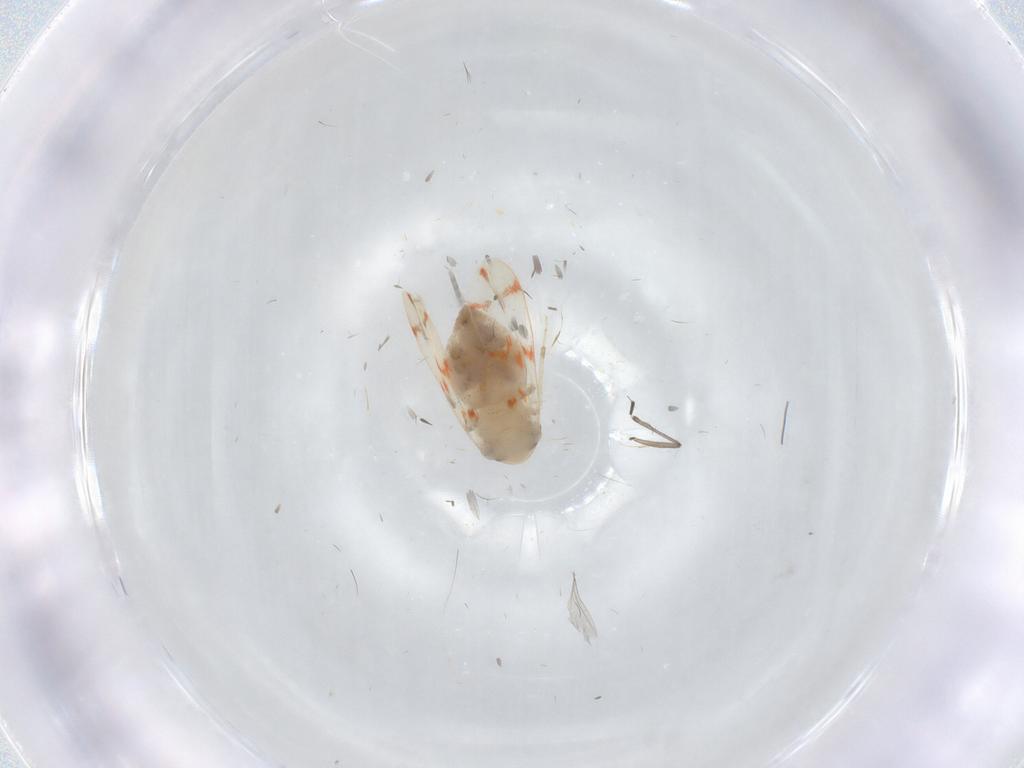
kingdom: Animalia
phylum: Arthropoda
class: Insecta
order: Hemiptera
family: Aleyrodidae
